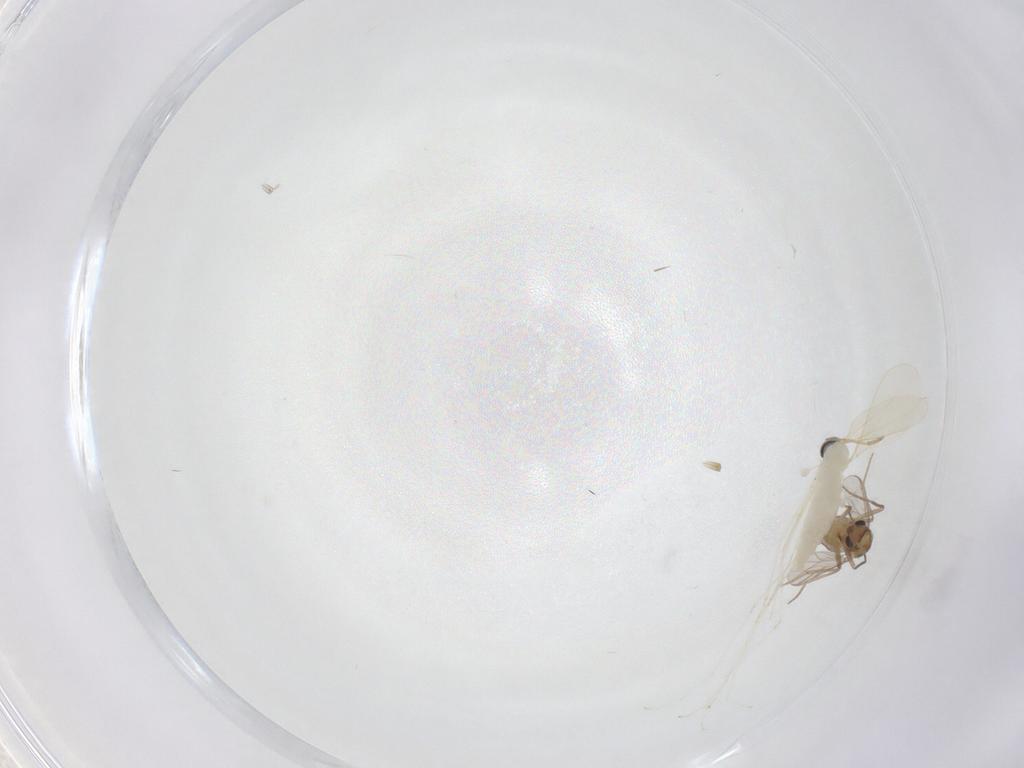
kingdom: Animalia
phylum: Arthropoda
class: Insecta
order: Diptera
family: Chironomidae
